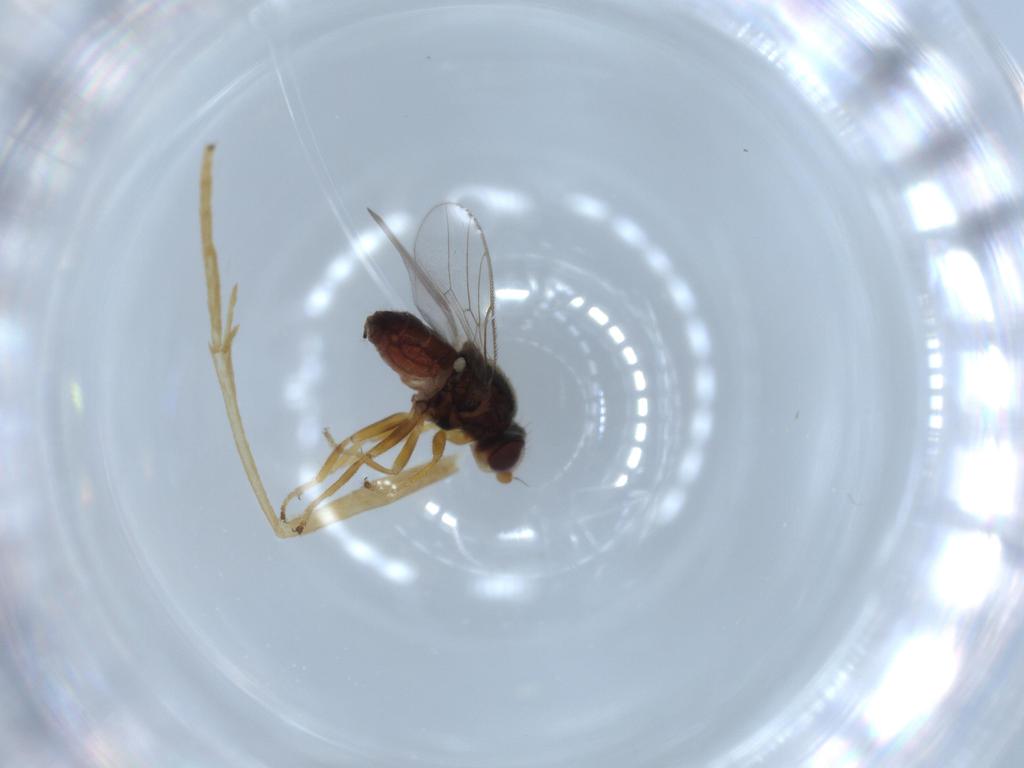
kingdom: Animalia
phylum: Arthropoda
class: Insecta
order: Diptera
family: Chloropidae
